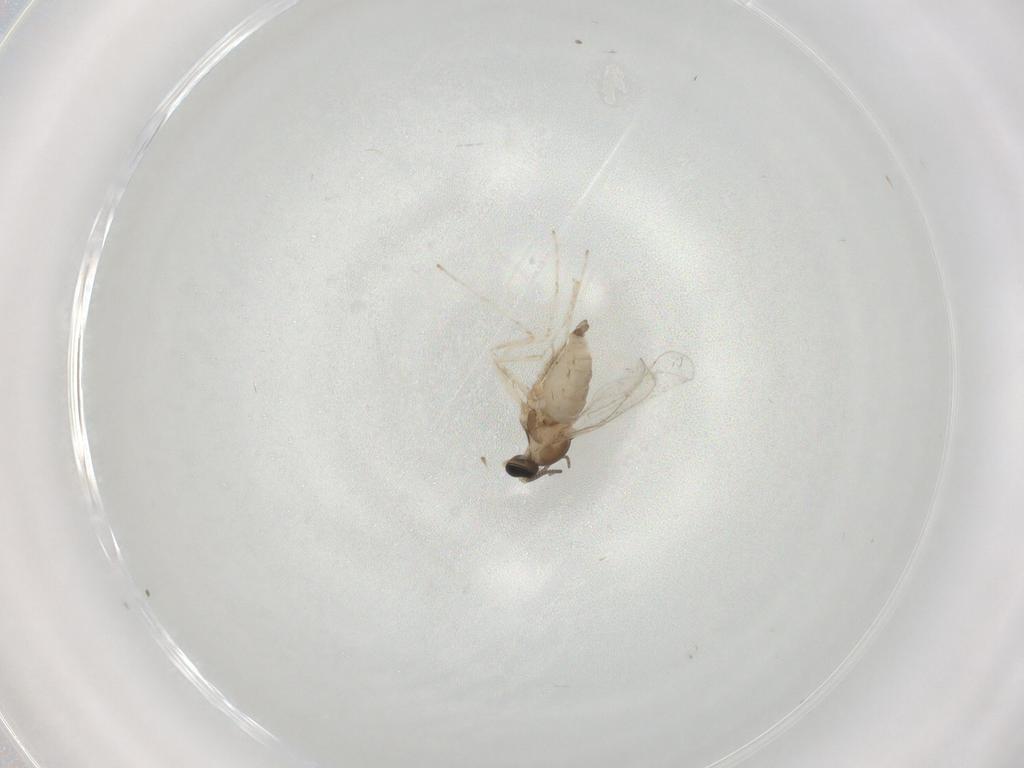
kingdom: Animalia
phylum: Arthropoda
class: Insecta
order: Diptera
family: Cecidomyiidae
